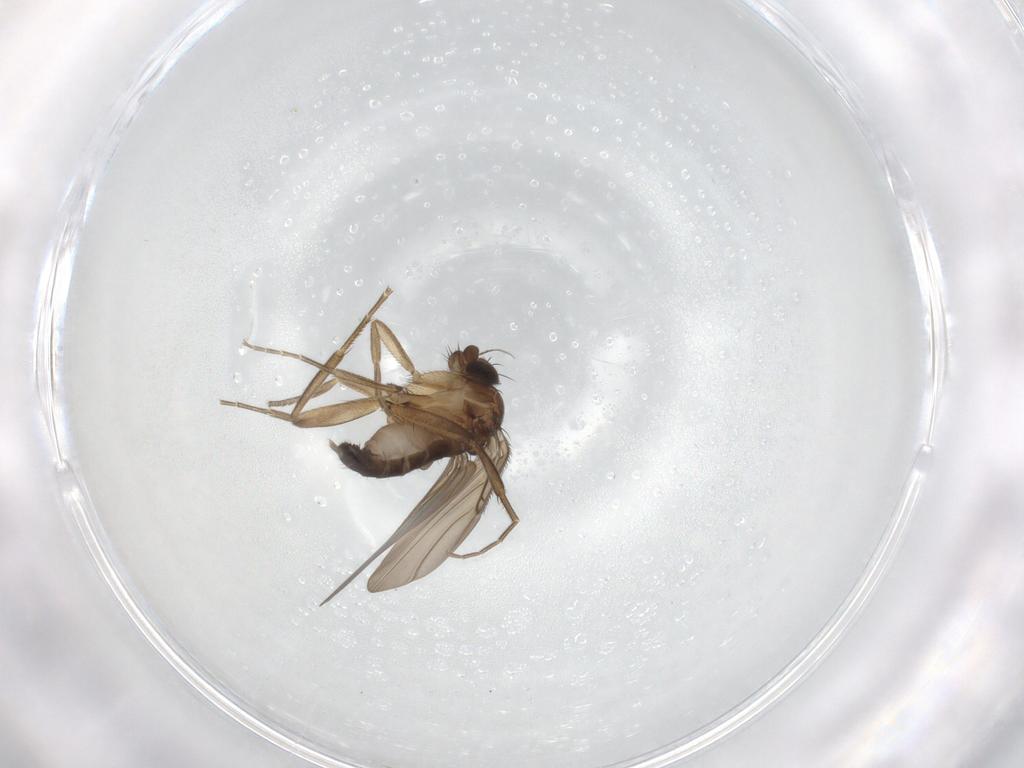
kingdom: Animalia
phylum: Arthropoda
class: Insecta
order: Diptera
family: Phoridae
